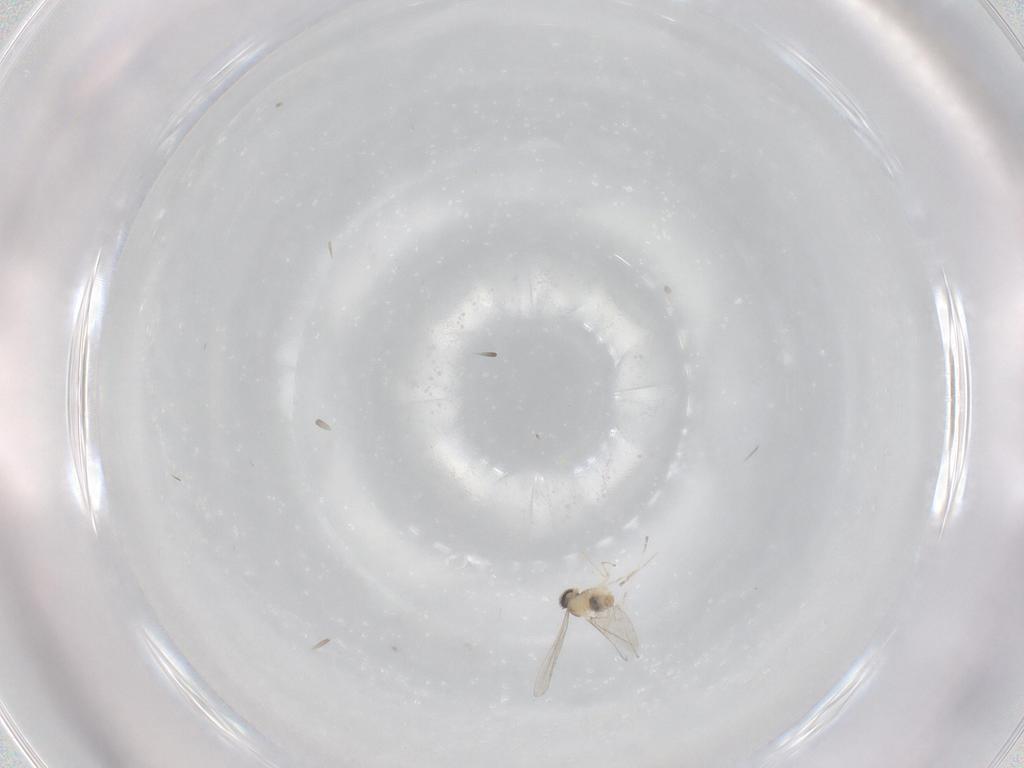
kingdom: Animalia
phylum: Arthropoda
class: Insecta
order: Diptera
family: Cecidomyiidae
